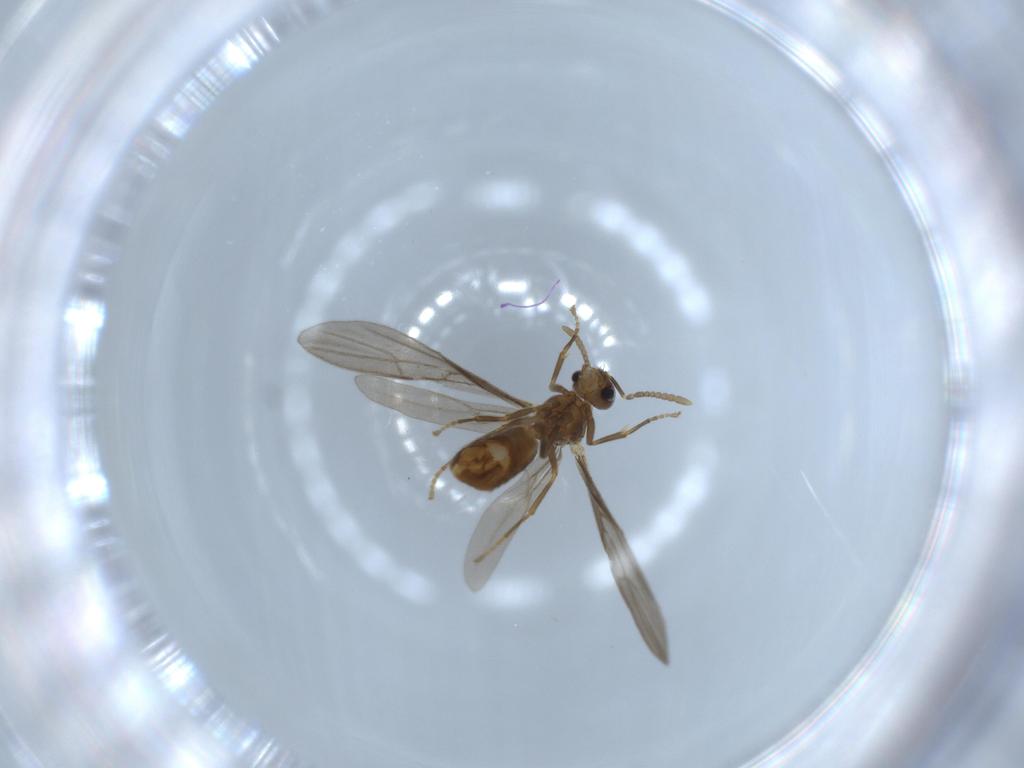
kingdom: Animalia
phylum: Arthropoda
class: Insecta
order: Hymenoptera
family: Formicidae
